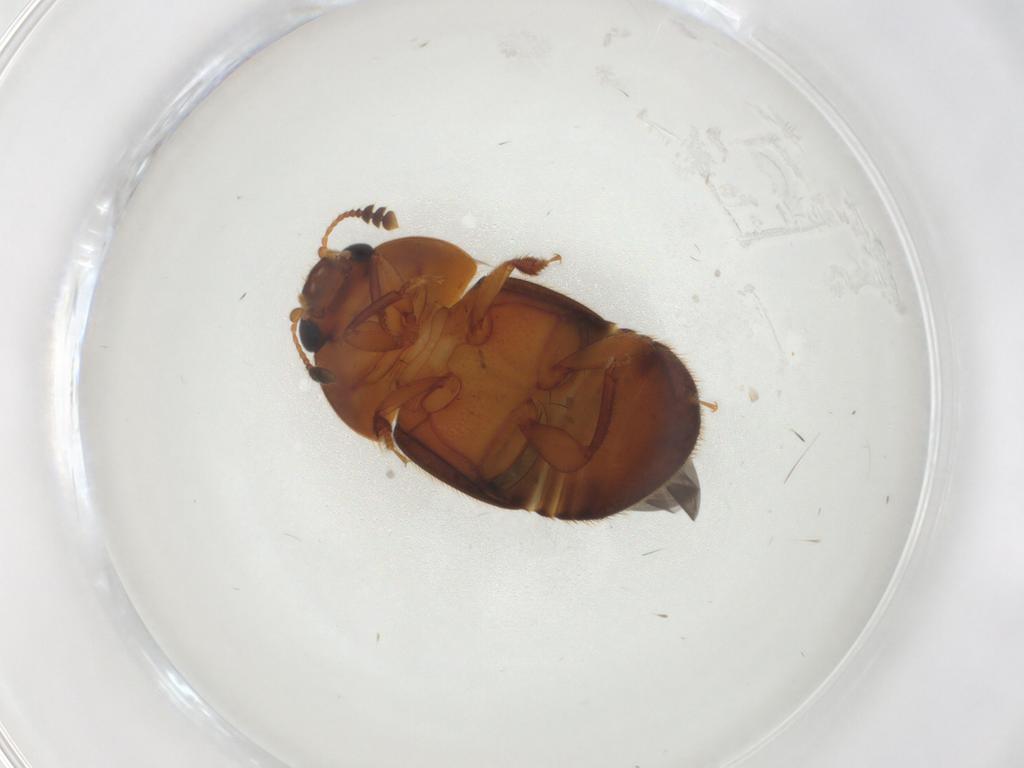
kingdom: Animalia
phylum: Arthropoda
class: Insecta
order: Coleoptera
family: Nitidulidae
